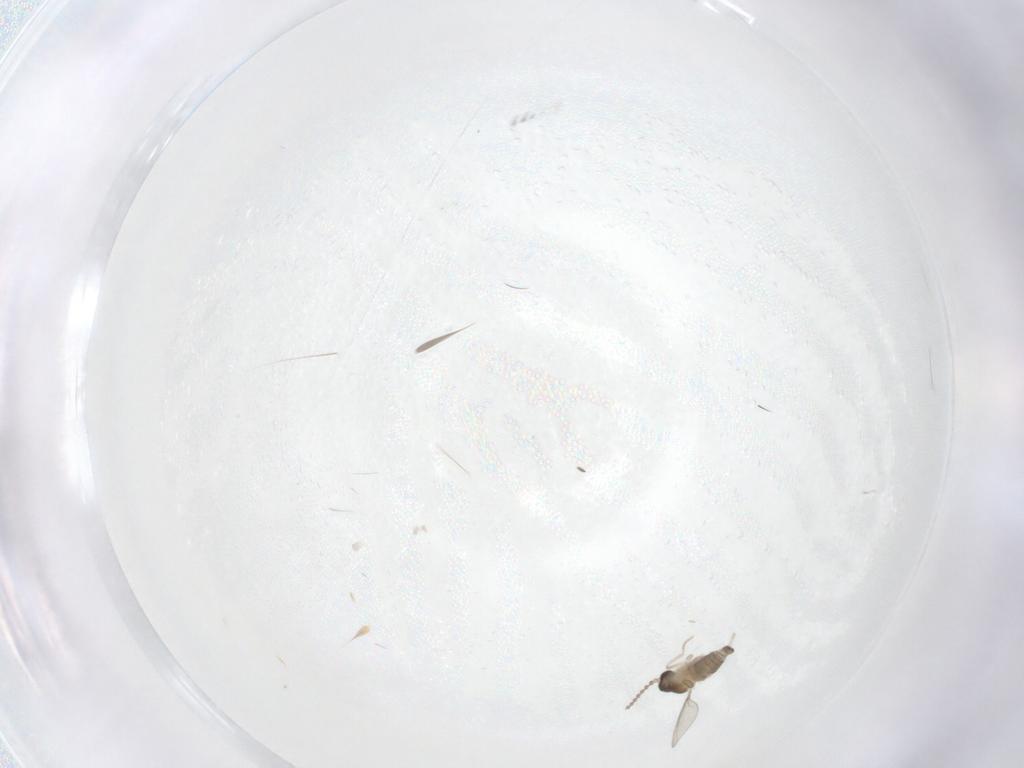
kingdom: Animalia
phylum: Arthropoda
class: Insecta
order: Diptera
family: Cecidomyiidae
